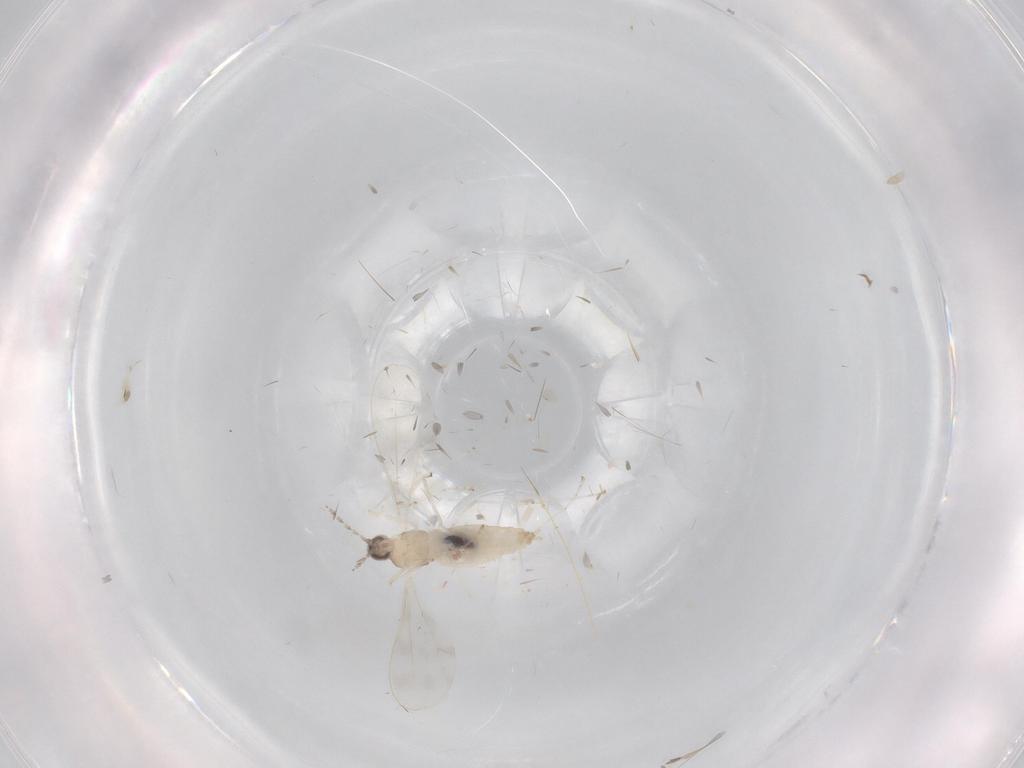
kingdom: Animalia
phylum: Arthropoda
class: Insecta
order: Diptera
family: Cecidomyiidae
